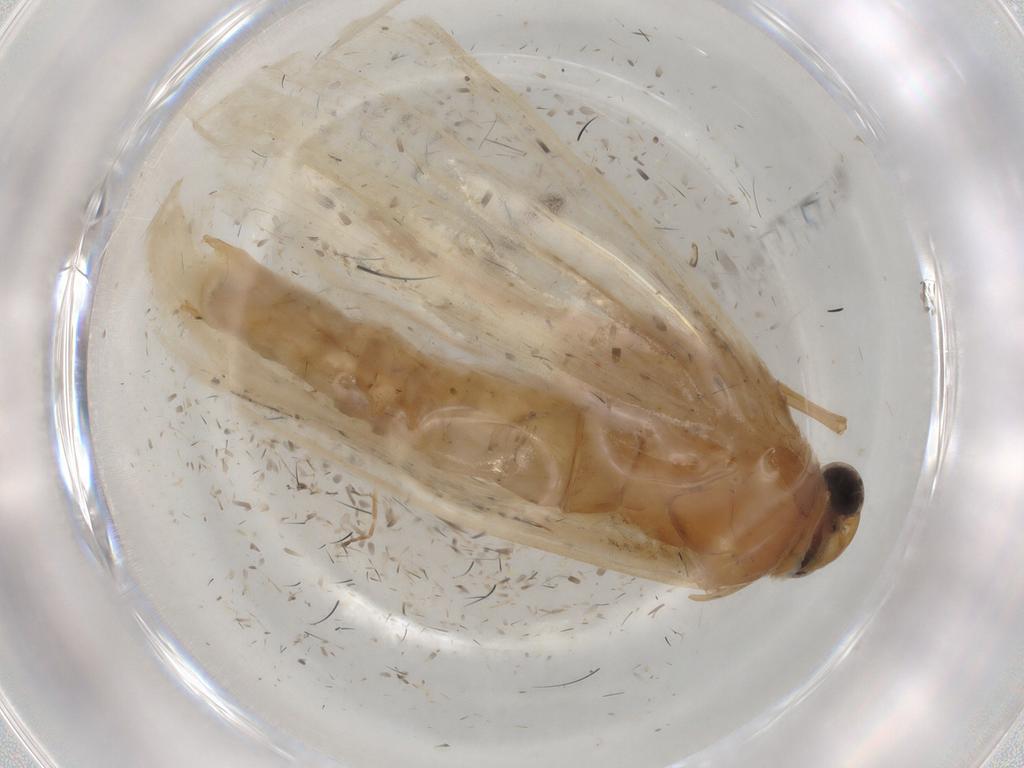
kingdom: Animalia
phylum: Arthropoda
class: Insecta
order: Lepidoptera
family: Crambidae
